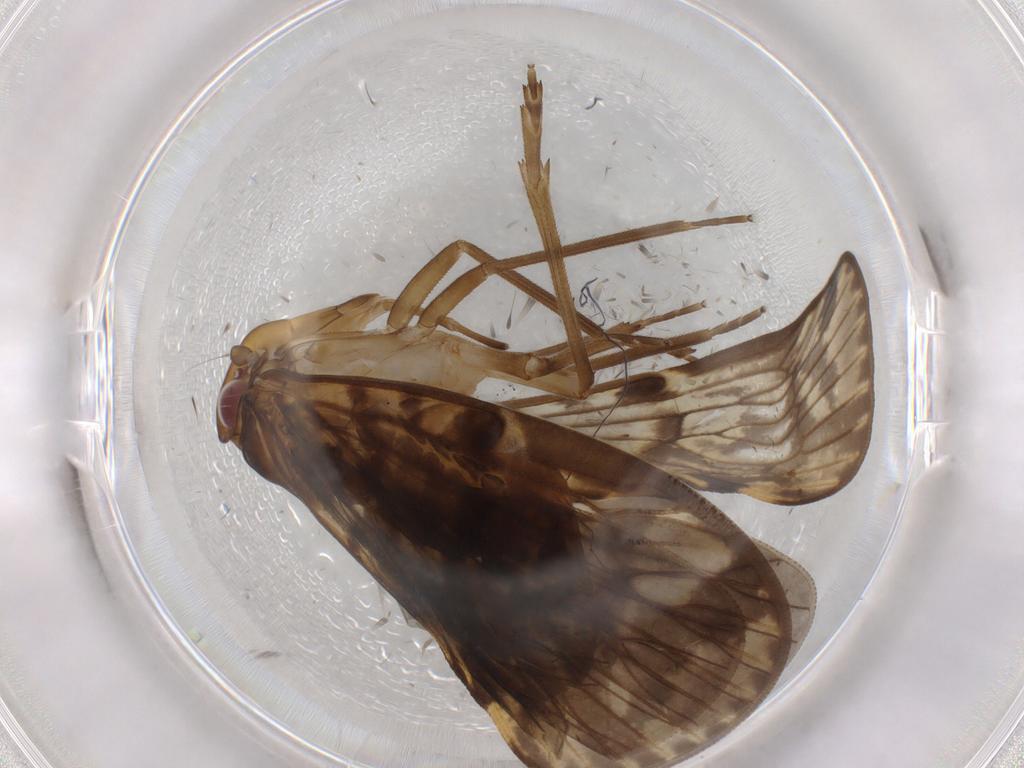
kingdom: Animalia
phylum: Arthropoda
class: Insecta
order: Hemiptera
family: Cicadellidae
